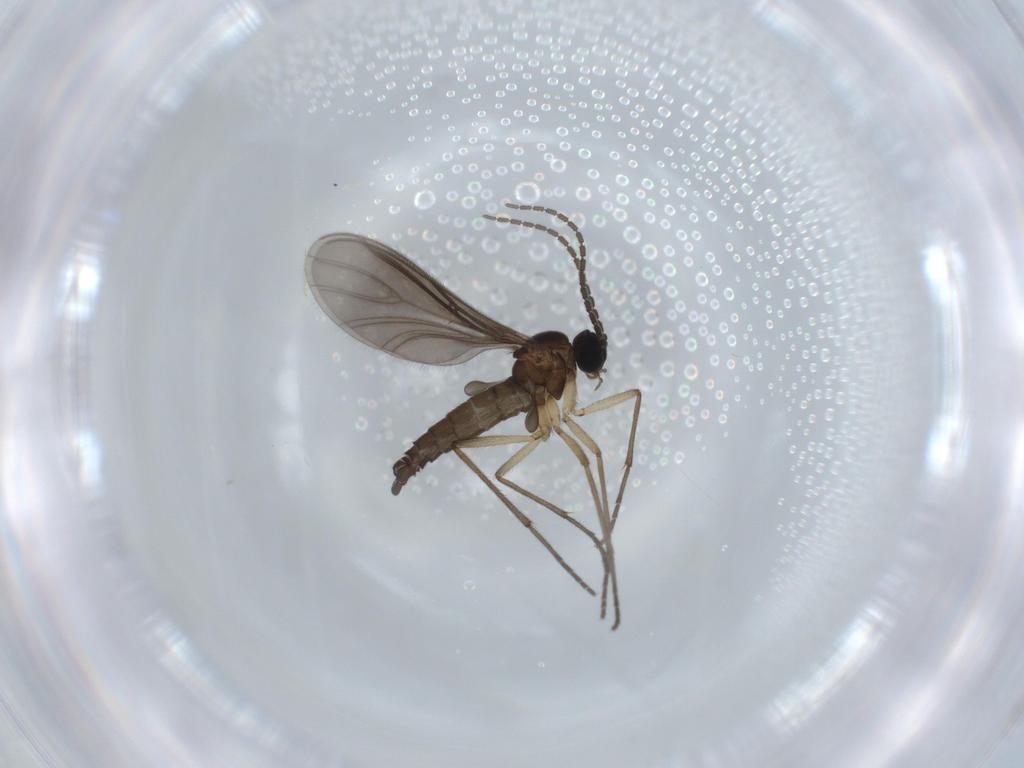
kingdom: Animalia
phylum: Arthropoda
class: Insecta
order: Diptera
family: Sciaridae
